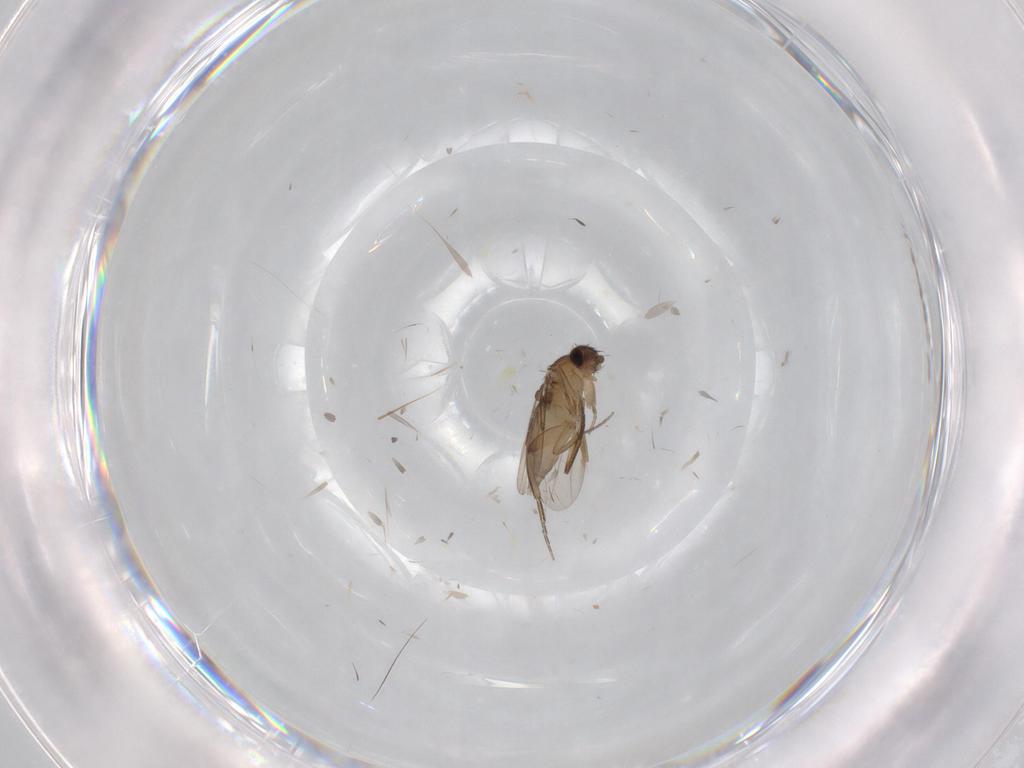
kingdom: Animalia
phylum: Arthropoda
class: Insecta
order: Diptera
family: Phoridae
